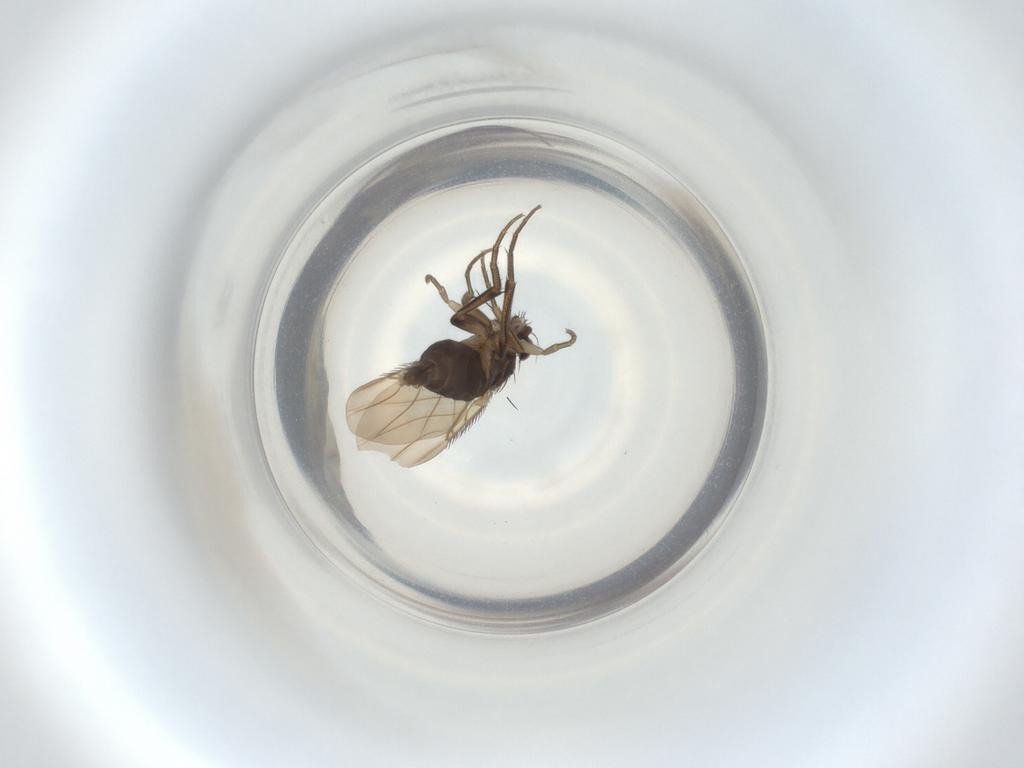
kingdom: Animalia
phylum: Arthropoda
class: Insecta
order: Diptera
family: Phoridae
